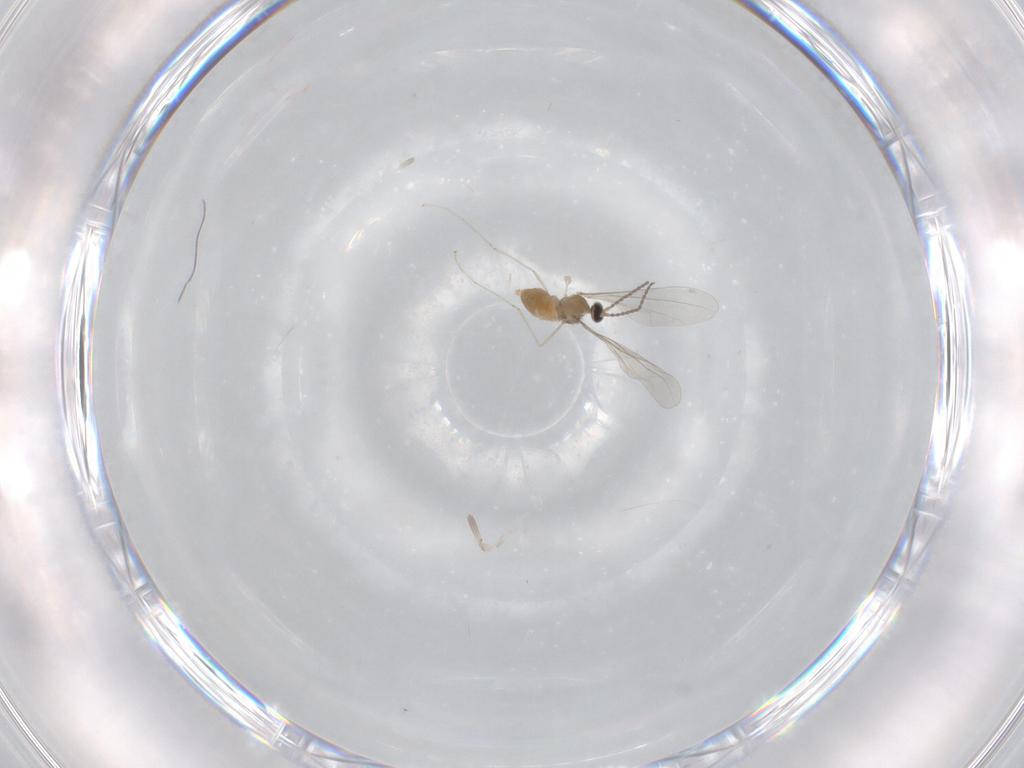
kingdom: Animalia
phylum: Arthropoda
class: Insecta
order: Diptera
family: Cecidomyiidae
